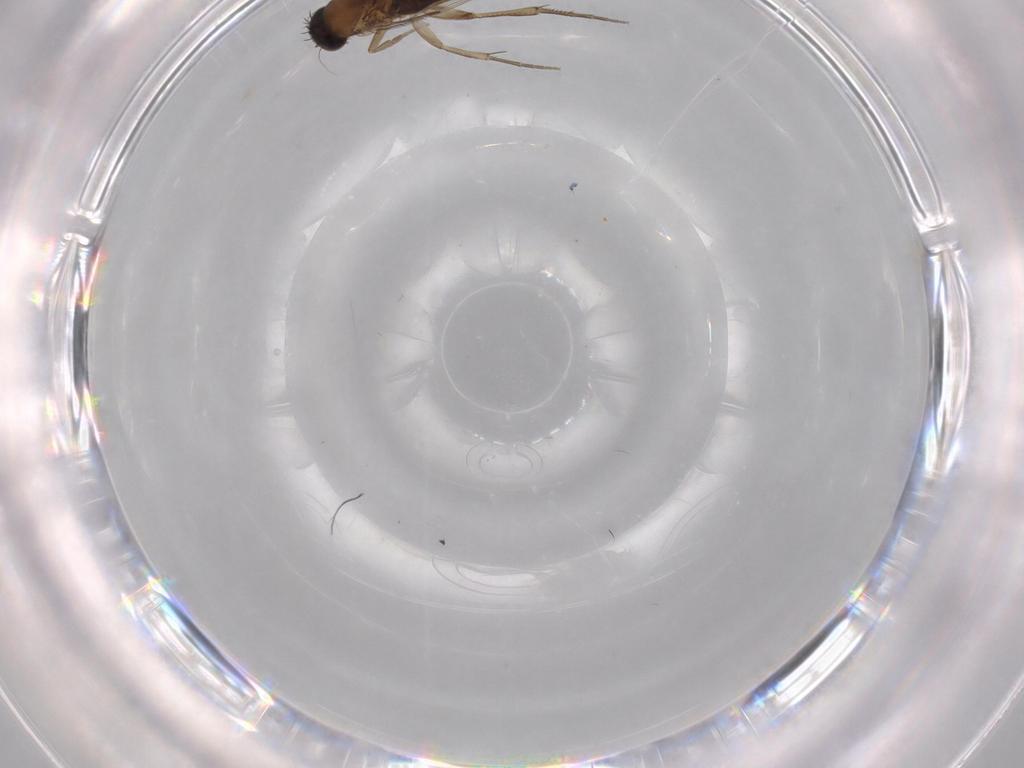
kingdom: Animalia
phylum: Arthropoda
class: Insecta
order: Diptera
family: Phoridae
